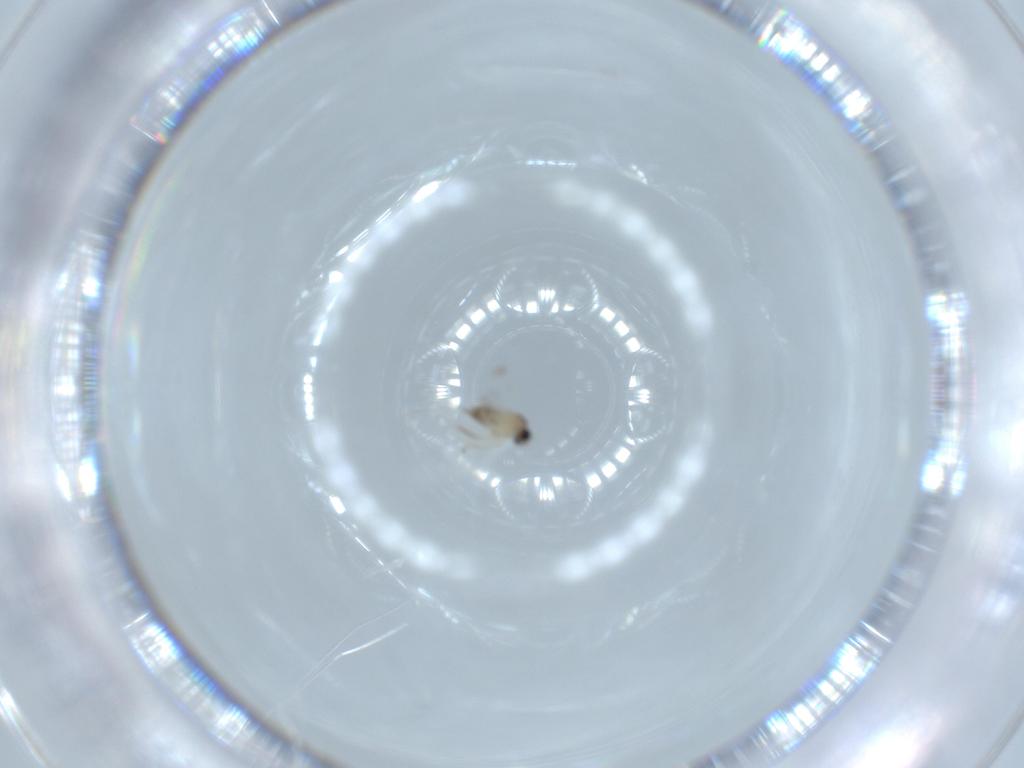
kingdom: Animalia
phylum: Arthropoda
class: Insecta
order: Diptera
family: Cecidomyiidae
